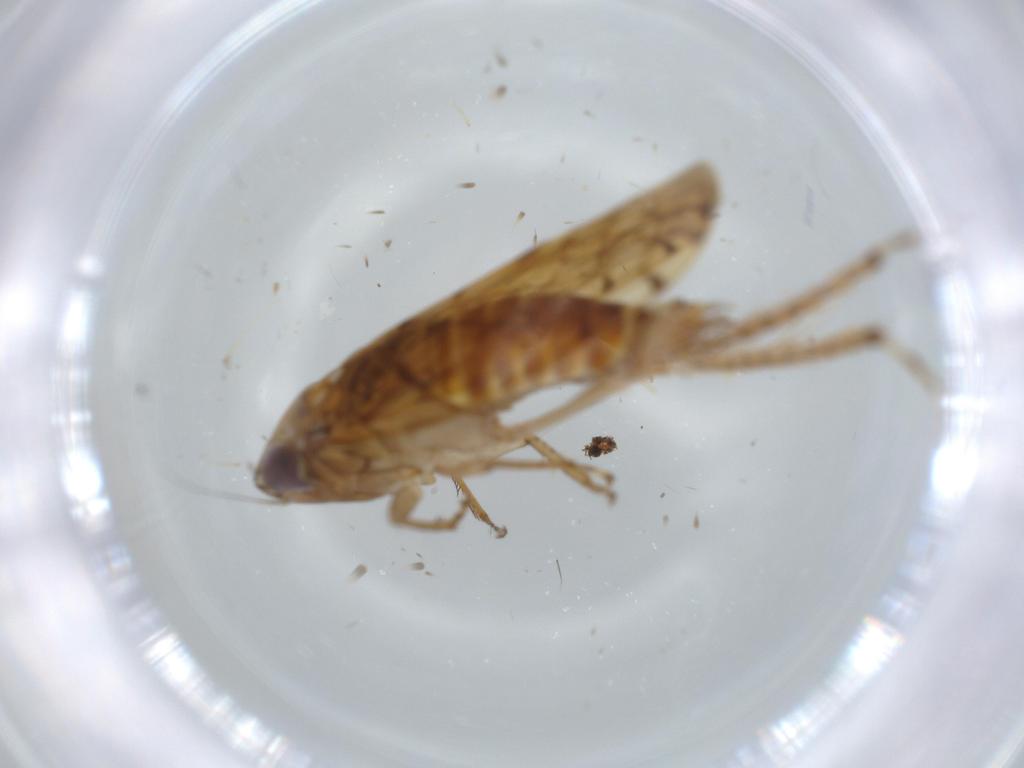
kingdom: Animalia
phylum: Arthropoda
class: Insecta
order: Hemiptera
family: Cicadellidae
